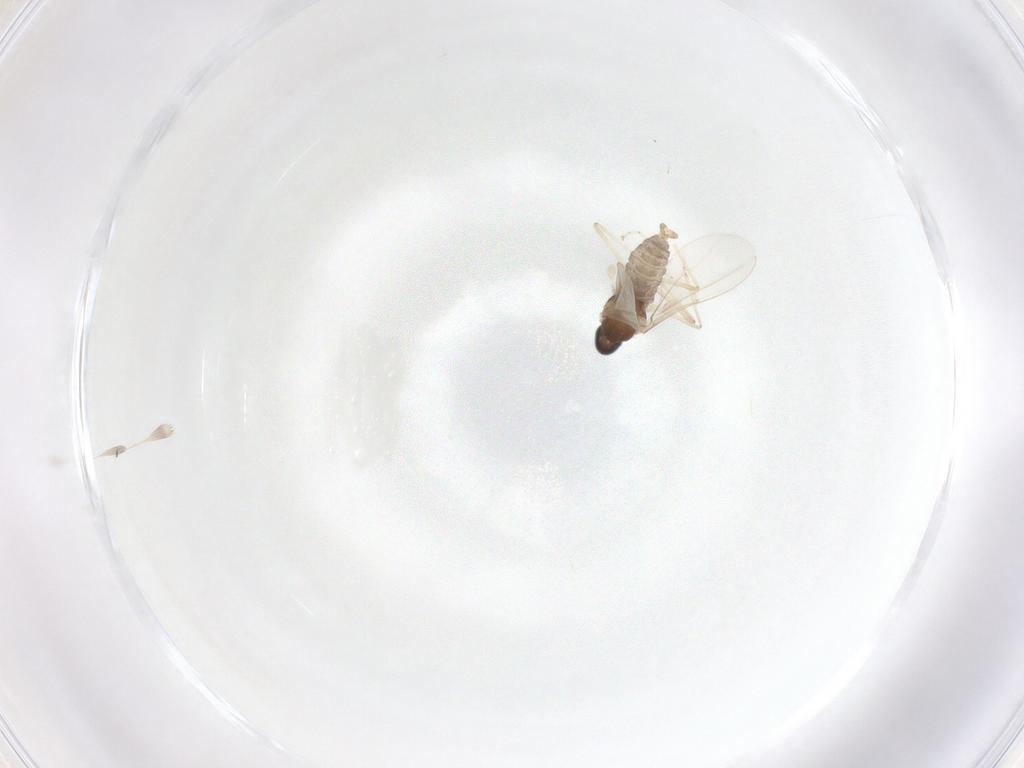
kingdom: Animalia
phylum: Arthropoda
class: Insecta
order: Diptera
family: Cecidomyiidae
